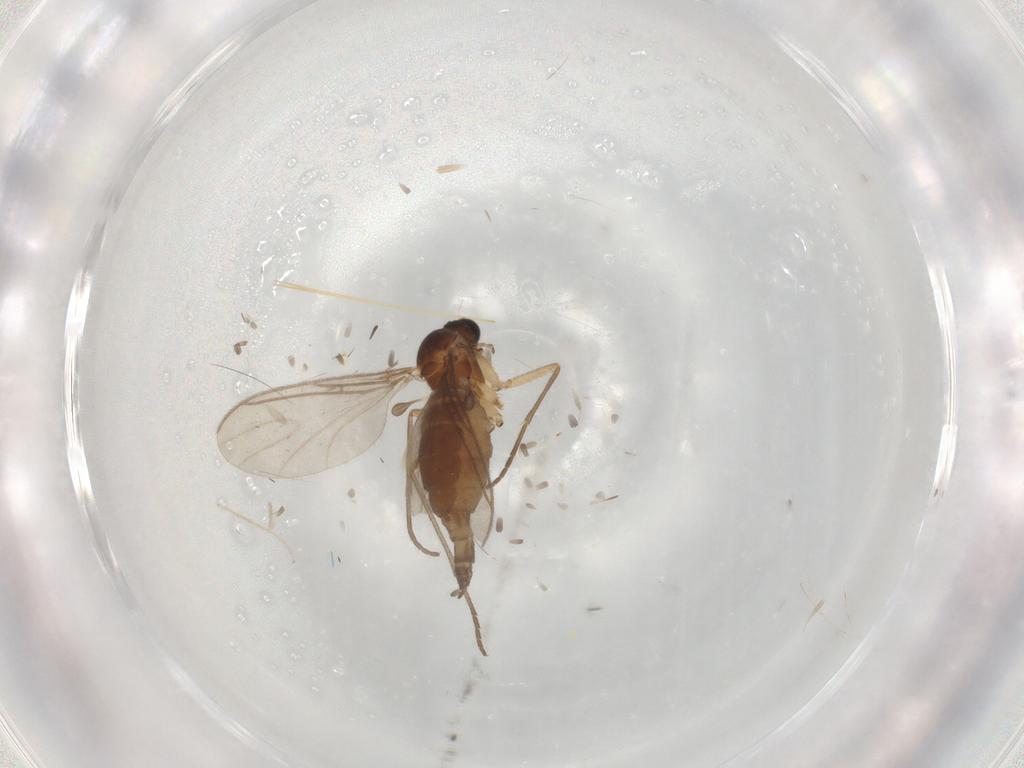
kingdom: Animalia
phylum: Arthropoda
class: Insecta
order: Diptera
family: Sciaridae
